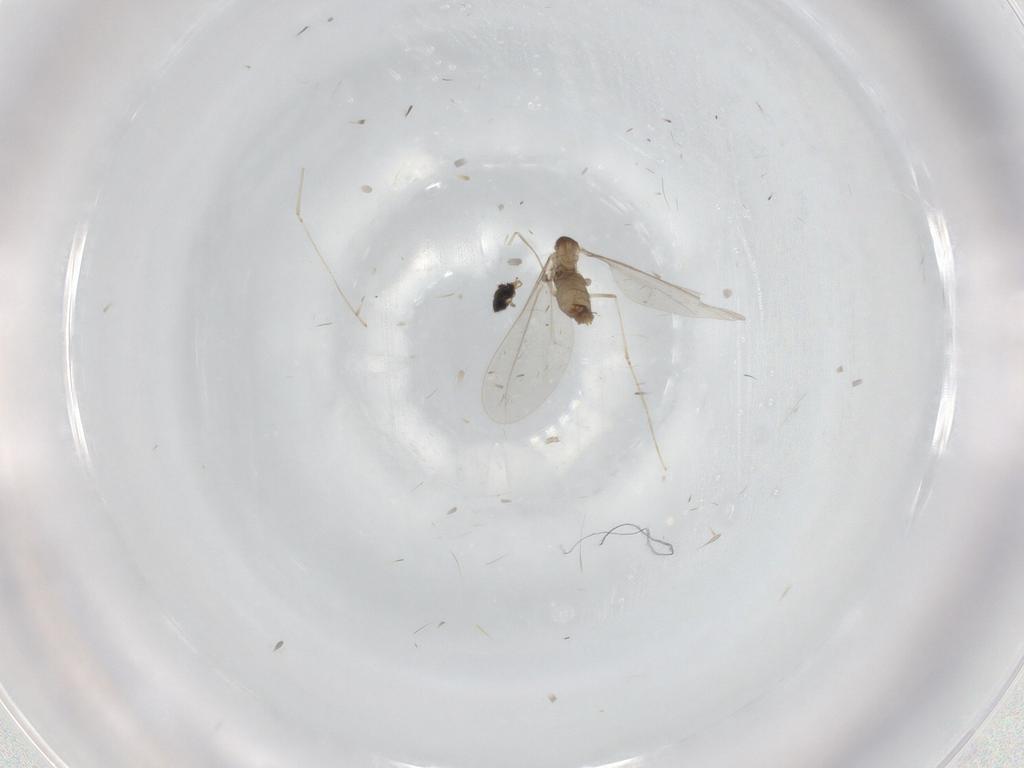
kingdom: Animalia
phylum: Arthropoda
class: Insecta
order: Diptera
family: Cecidomyiidae
